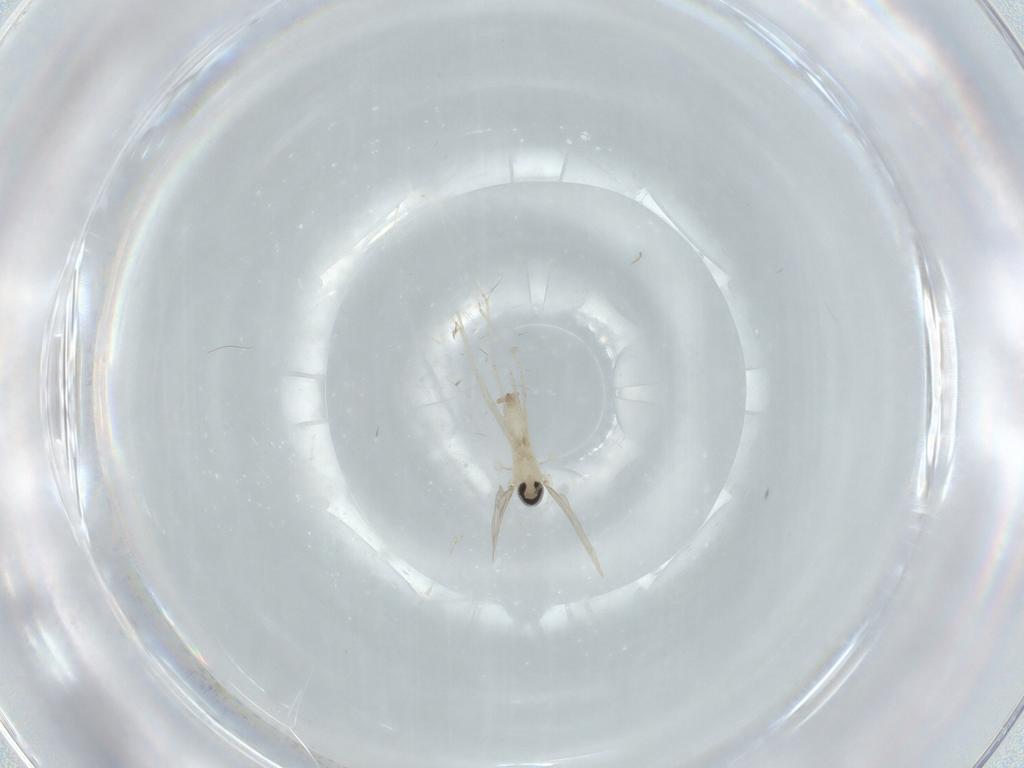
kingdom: Animalia
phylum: Arthropoda
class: Insecta
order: Diptera
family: Cecidomyiidae
